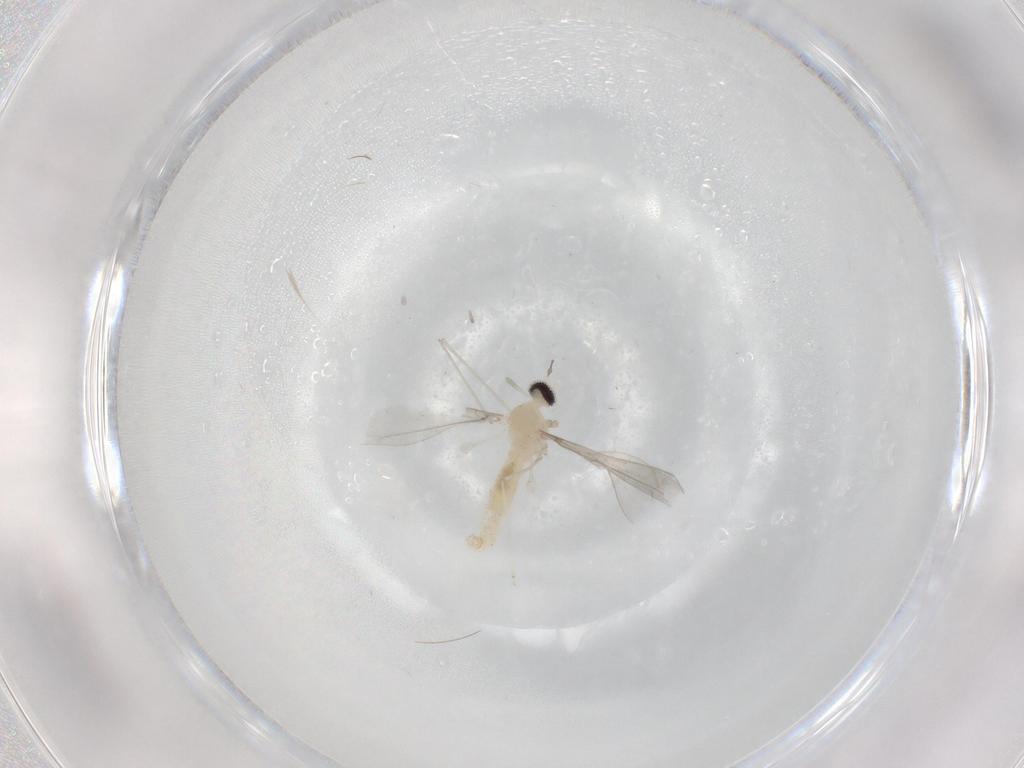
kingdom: Animalia
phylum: Arthropoda
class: Insecta
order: Diptera
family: Cecidomyiidae
